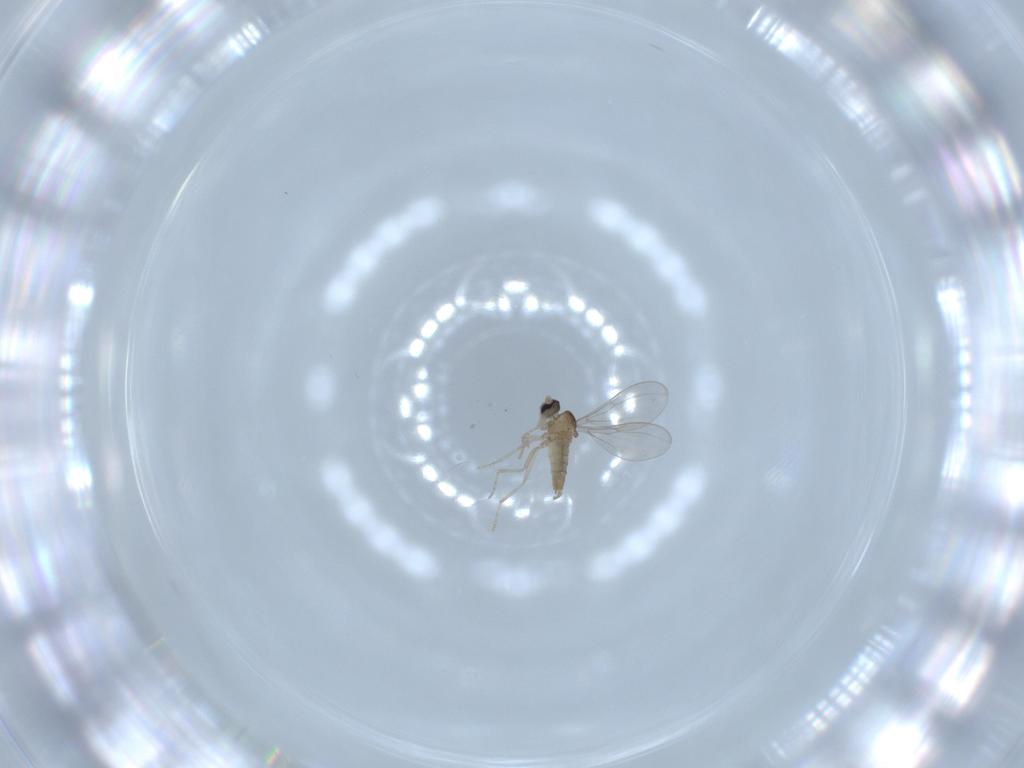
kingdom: Animalia
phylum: Arthropoda
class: Insecta
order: Diptera
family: Cecidomyiidae
